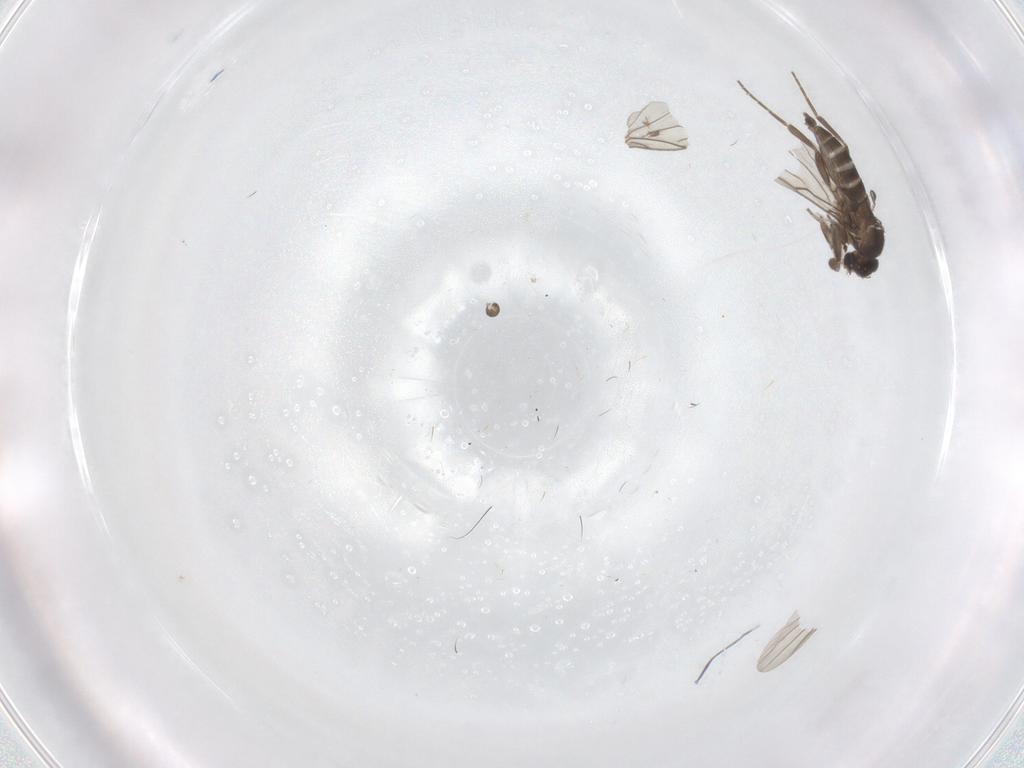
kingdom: Animalia
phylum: Arthropoda
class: Insecta
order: Diptera
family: Phoridae
